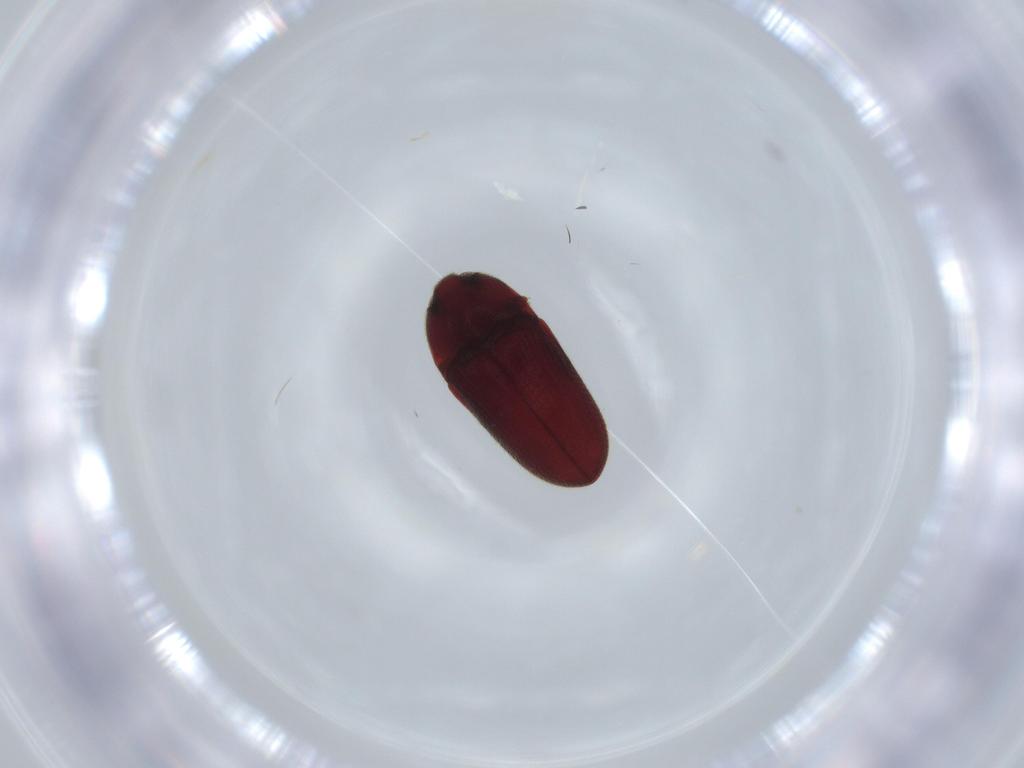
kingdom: Animalia
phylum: Arthropoda
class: Insecta
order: Coleoptera
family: Throscidae
